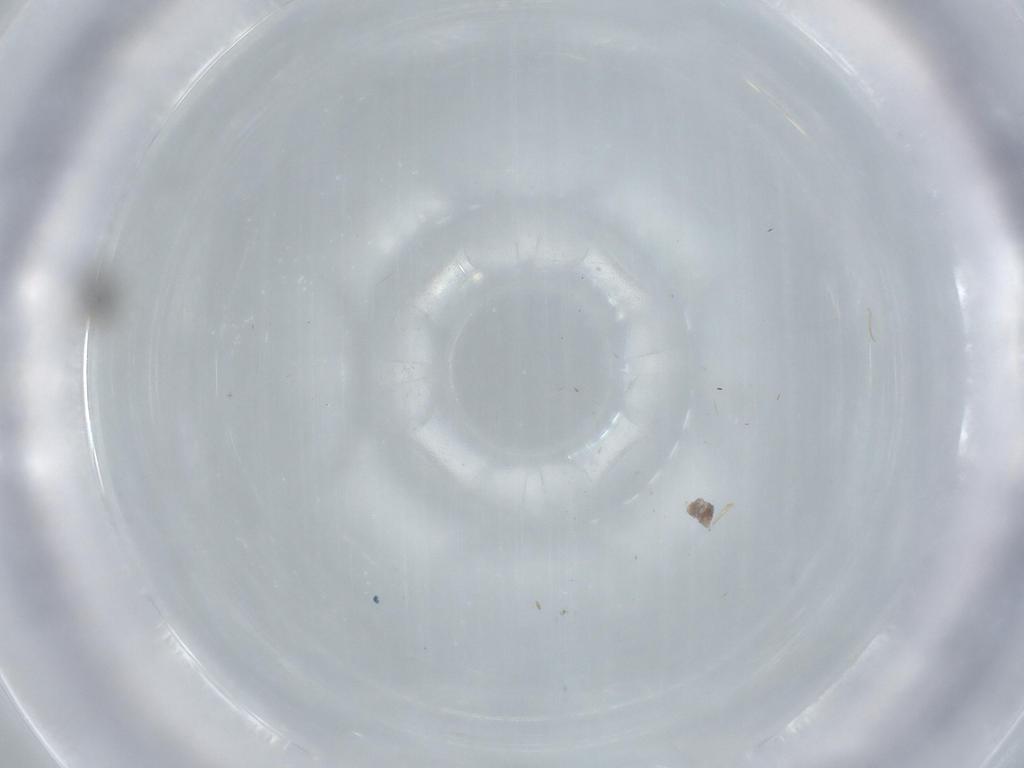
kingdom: Animalia
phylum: Arthropoda
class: Insecta
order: Hymenoptera
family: Scelionidae
